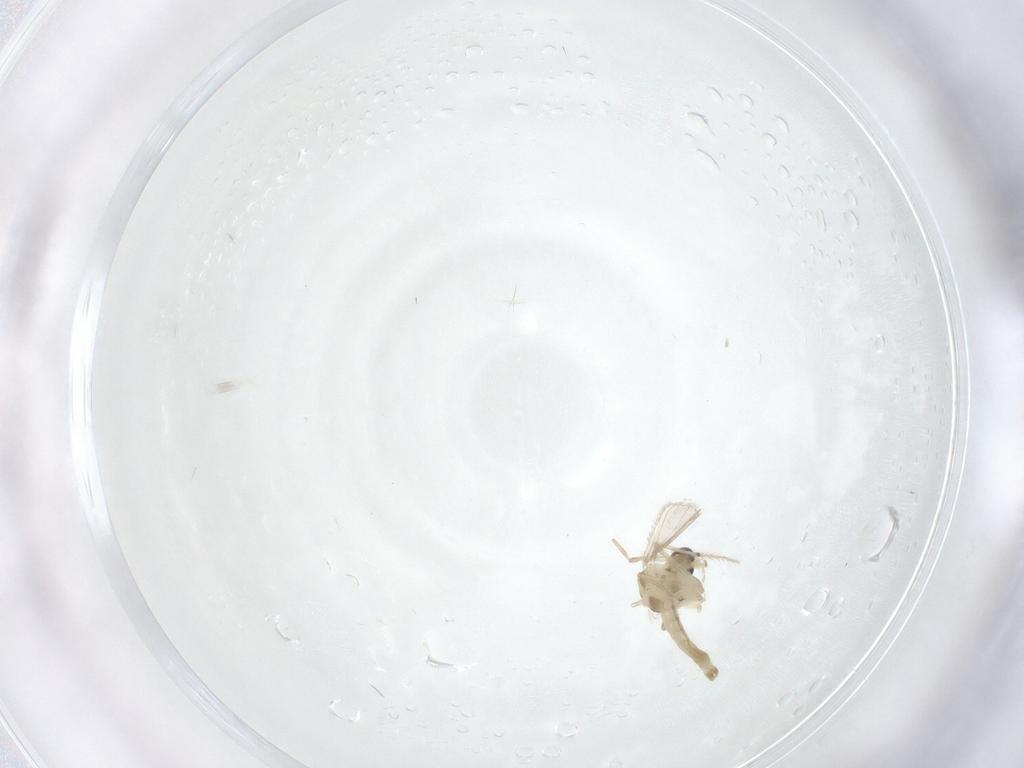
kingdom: Animalia
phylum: Arthropoda
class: Insecta
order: Diptera
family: Chironomidae
